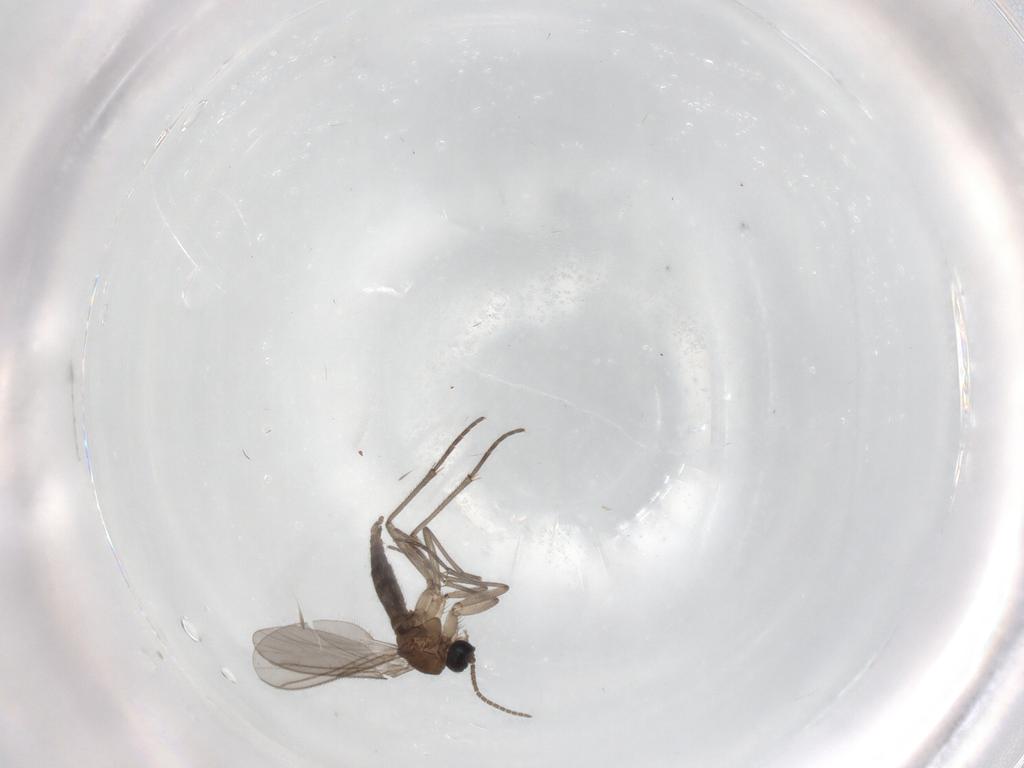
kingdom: Animalia
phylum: Arthropoda
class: Insecta
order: Diptera
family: Sciaridae
